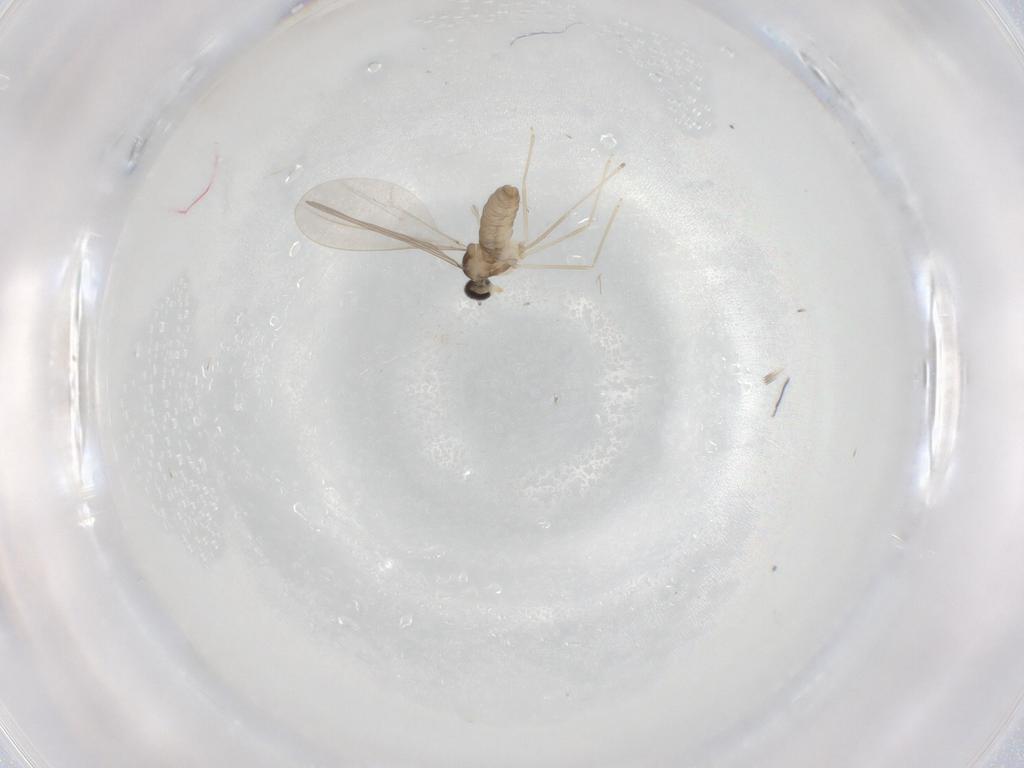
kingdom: Animalia
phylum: Arthropoda
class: Insecta
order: Diptera
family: Cecidomyiidae
